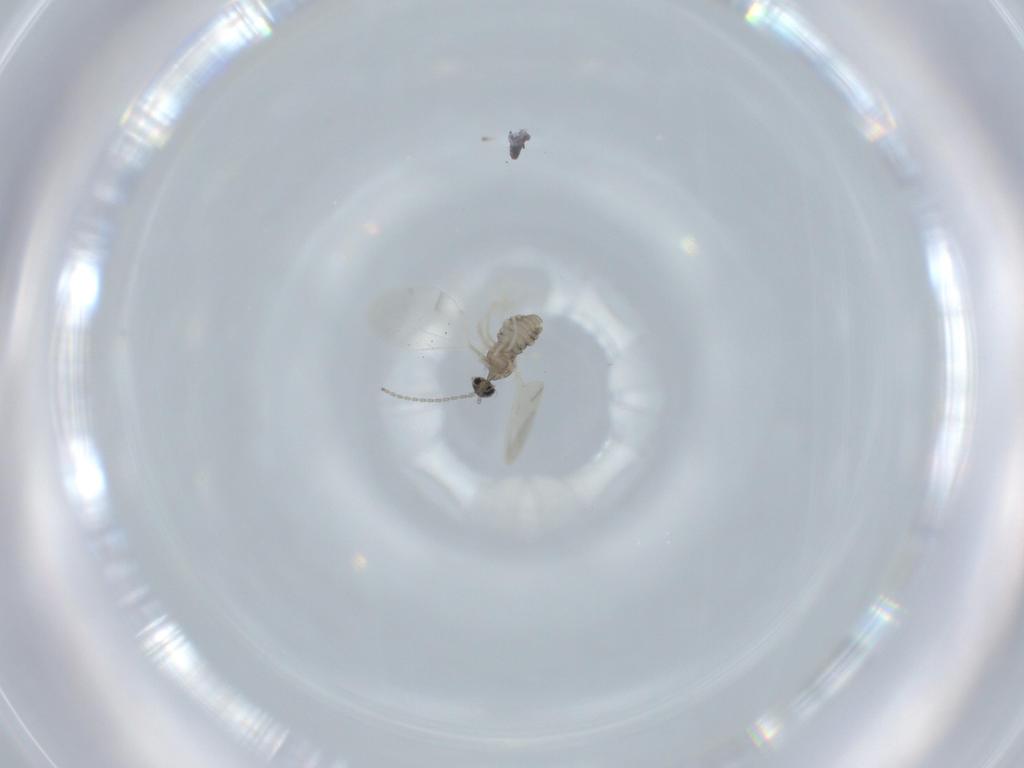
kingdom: Animalia
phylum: Arthropoda
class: Insecta
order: Diptera
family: Cecidomyiidae
